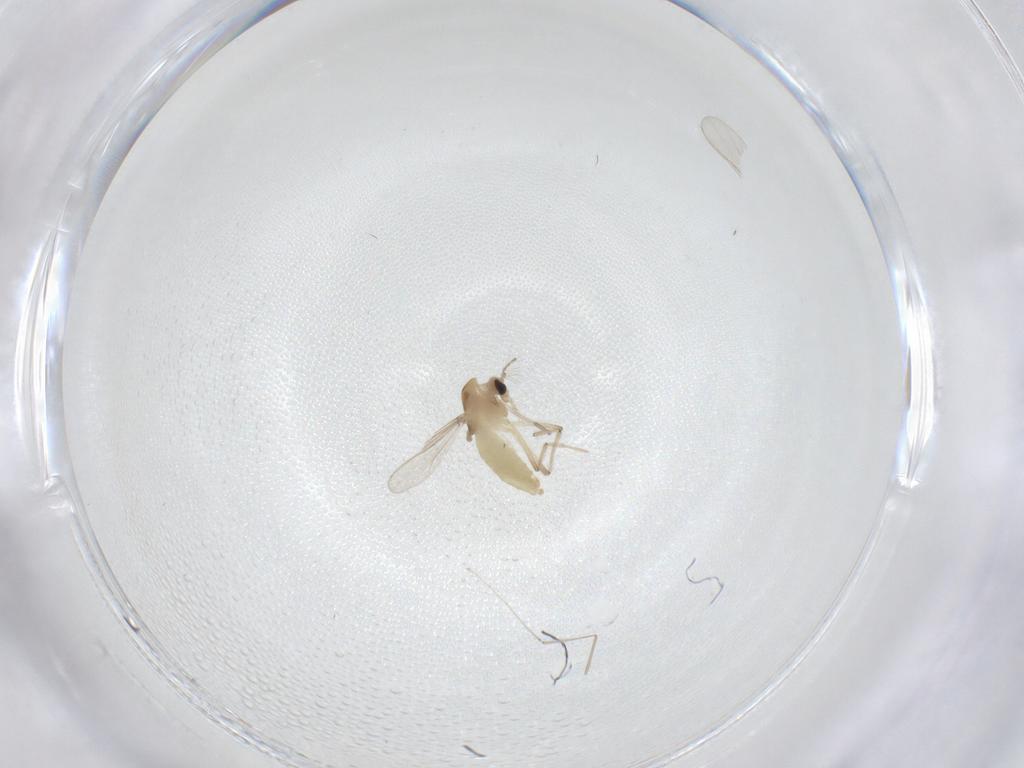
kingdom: Animalia
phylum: Arthropoda
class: Insecta
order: Diptera
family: Chironomidae
